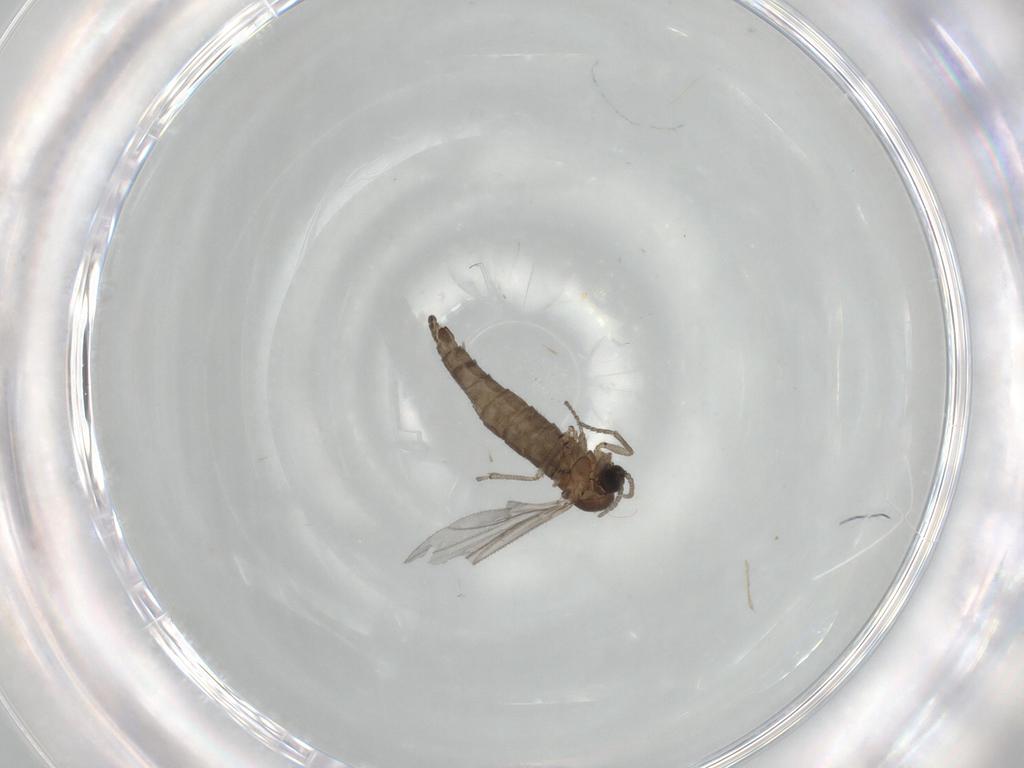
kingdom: Animalia
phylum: Arthropoda
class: Insecta
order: Diptera
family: Sciaridae
